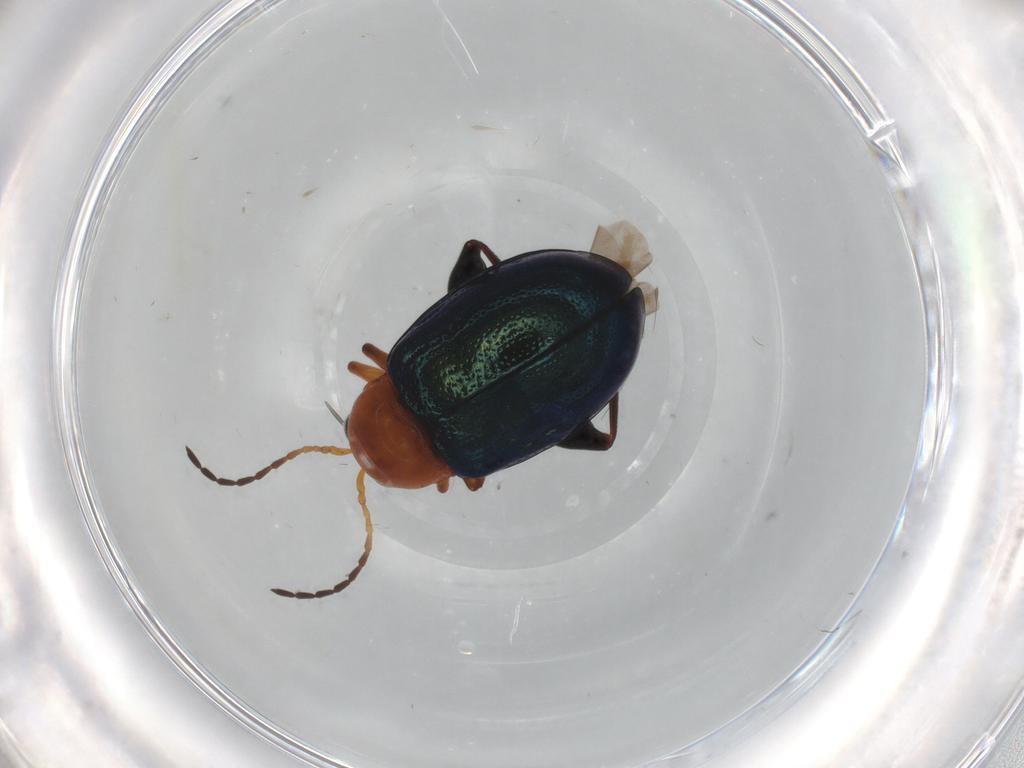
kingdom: Animalia
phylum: Arthropoda
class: Insecta
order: Coleoptera
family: Chrysomelidae
